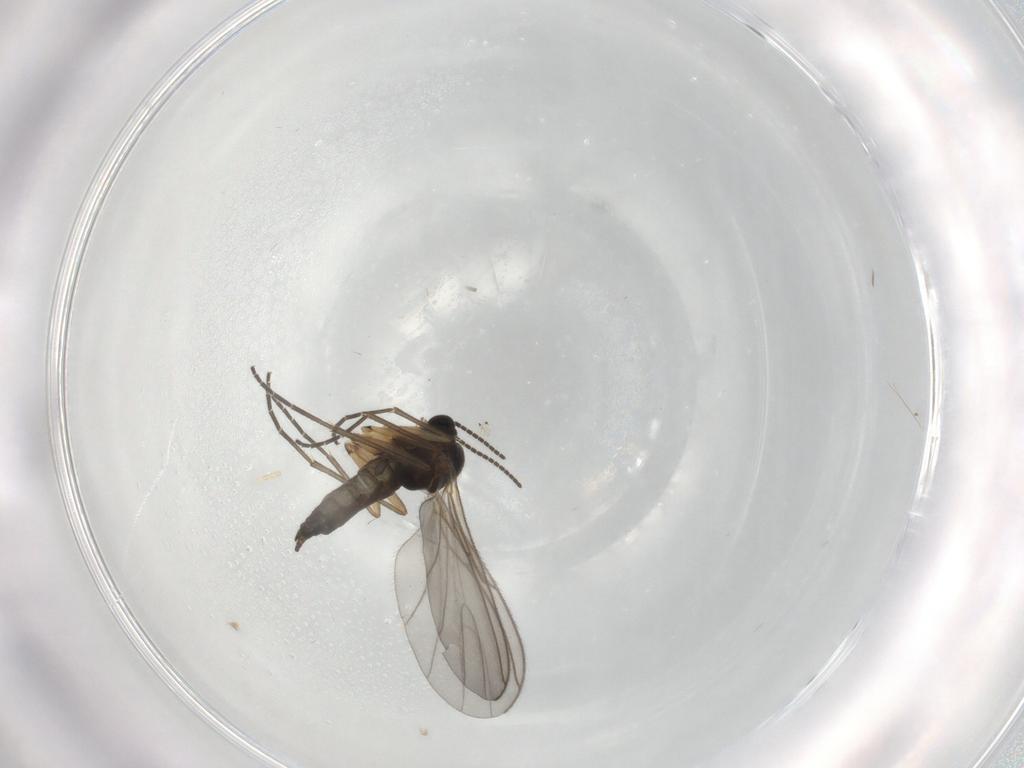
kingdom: Animalia
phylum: Arthropoda
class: Insecta
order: Diptera
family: Sciaridae
